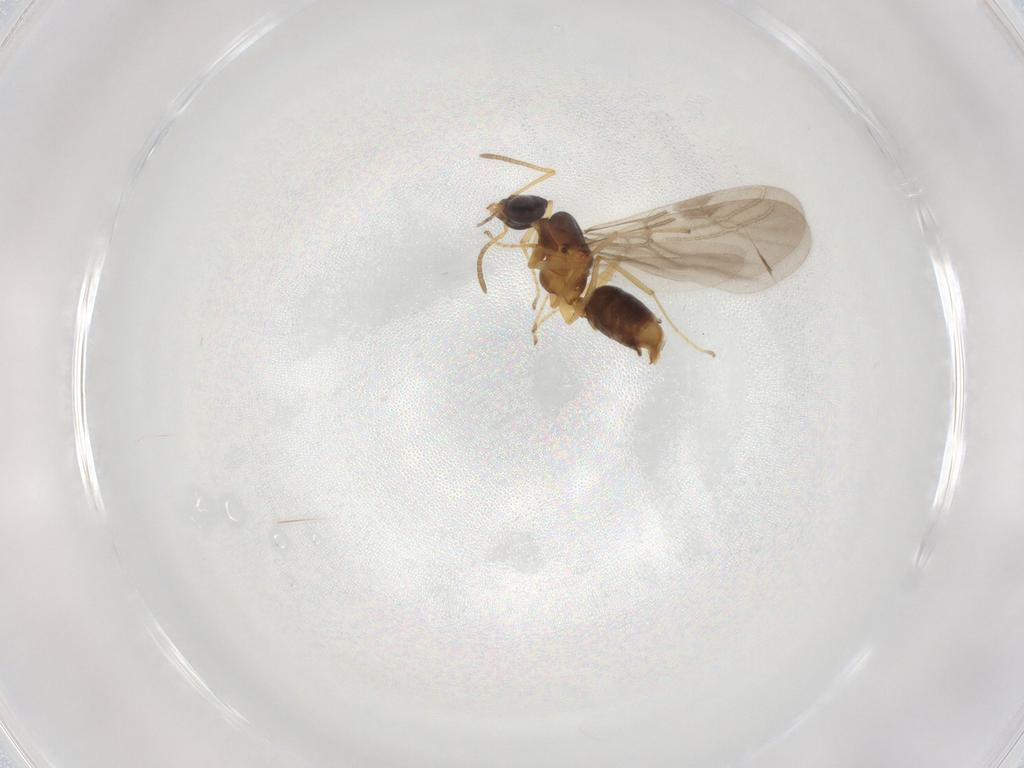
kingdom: Animalia
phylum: Arthropoda
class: Insecta
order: Hymenoptera
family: Formicidae
